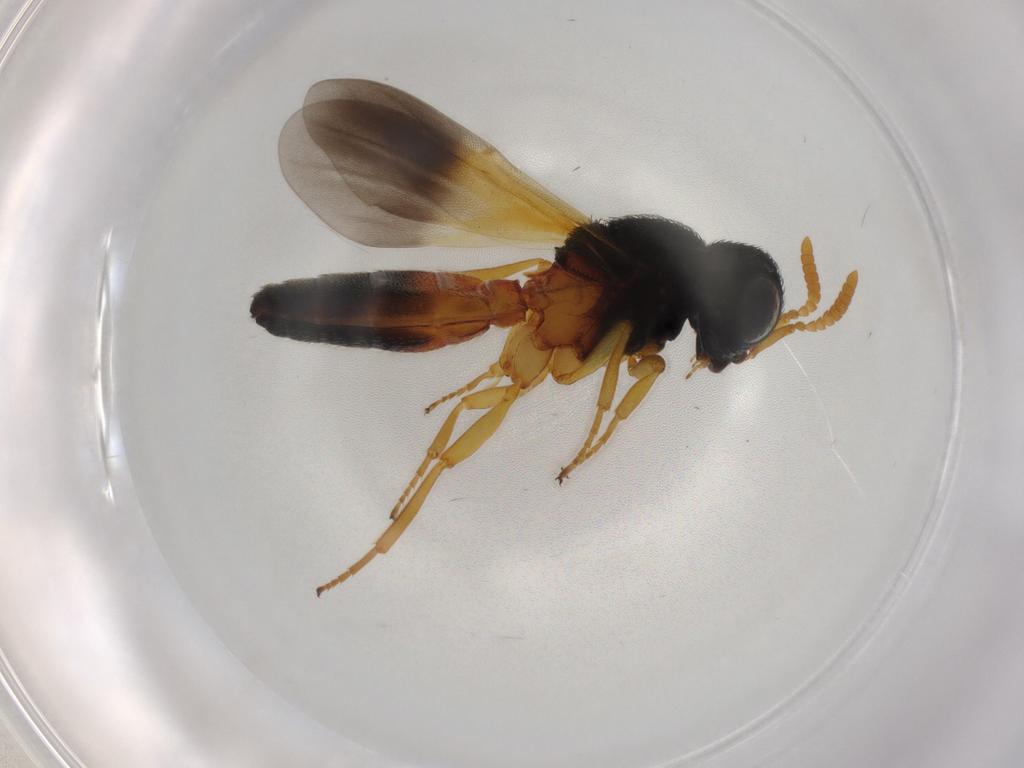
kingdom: Animalia
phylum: Arthropoda
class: Insecta
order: Hymenoptera
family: Scelionidae
